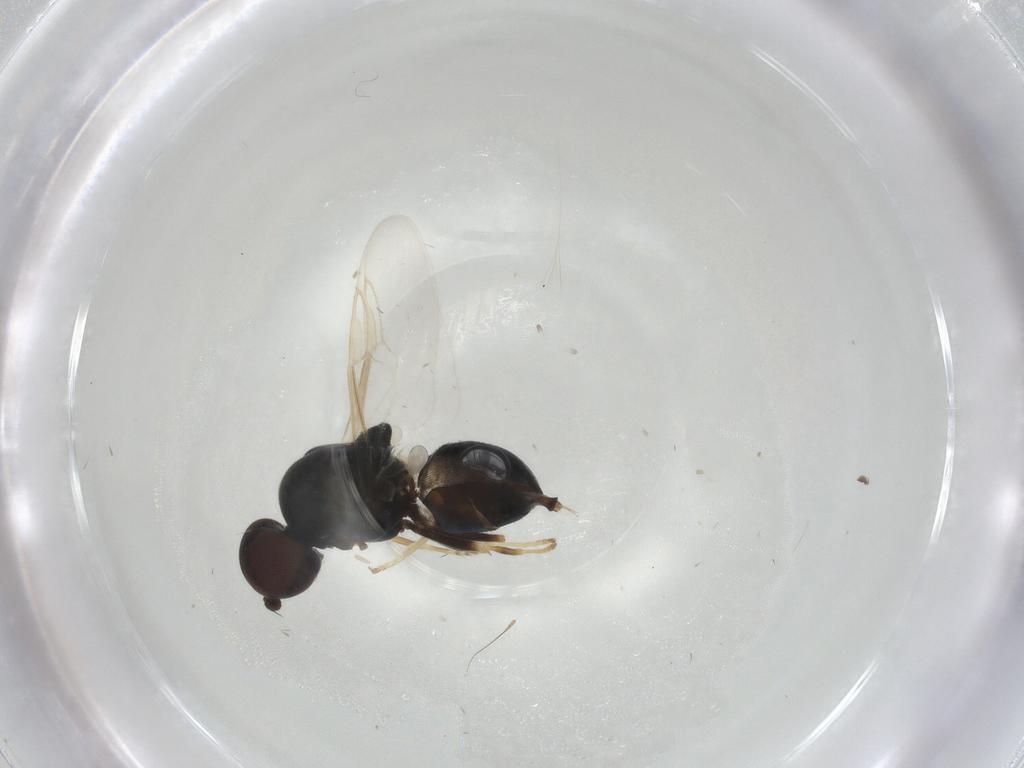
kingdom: Animalia
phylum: Arthropoda
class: Insecta
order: Diptera
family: Stratiomyidae
